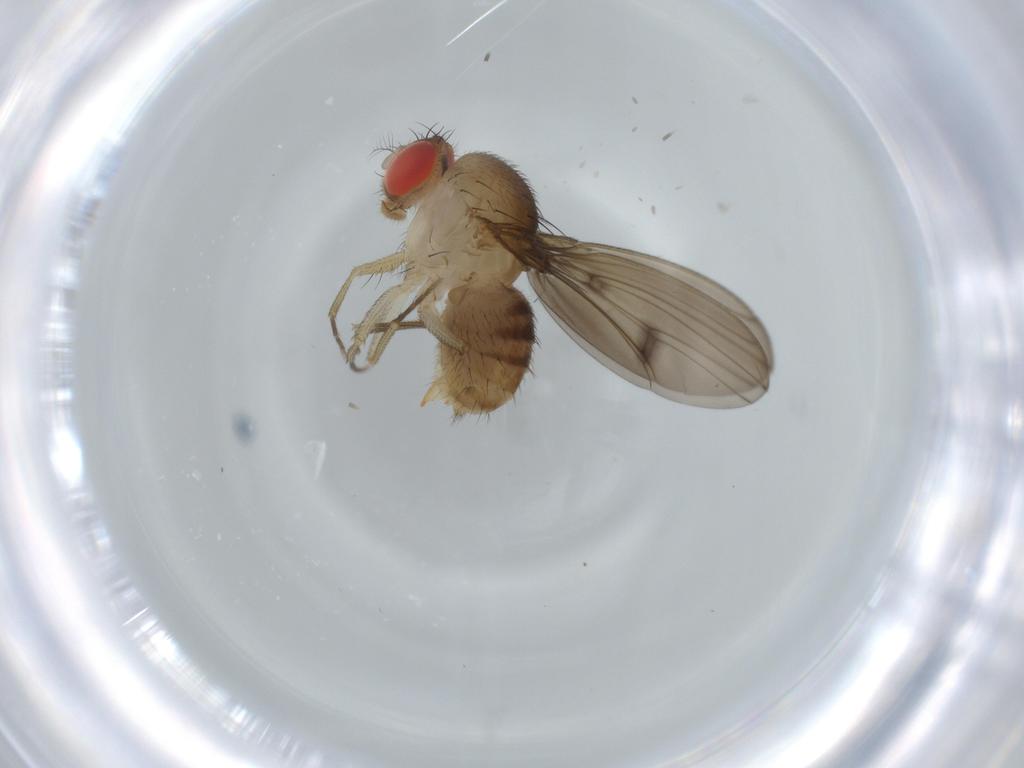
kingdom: Animalia
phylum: Arthropoda
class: Insecta
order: Diptera
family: Drosophilidae
